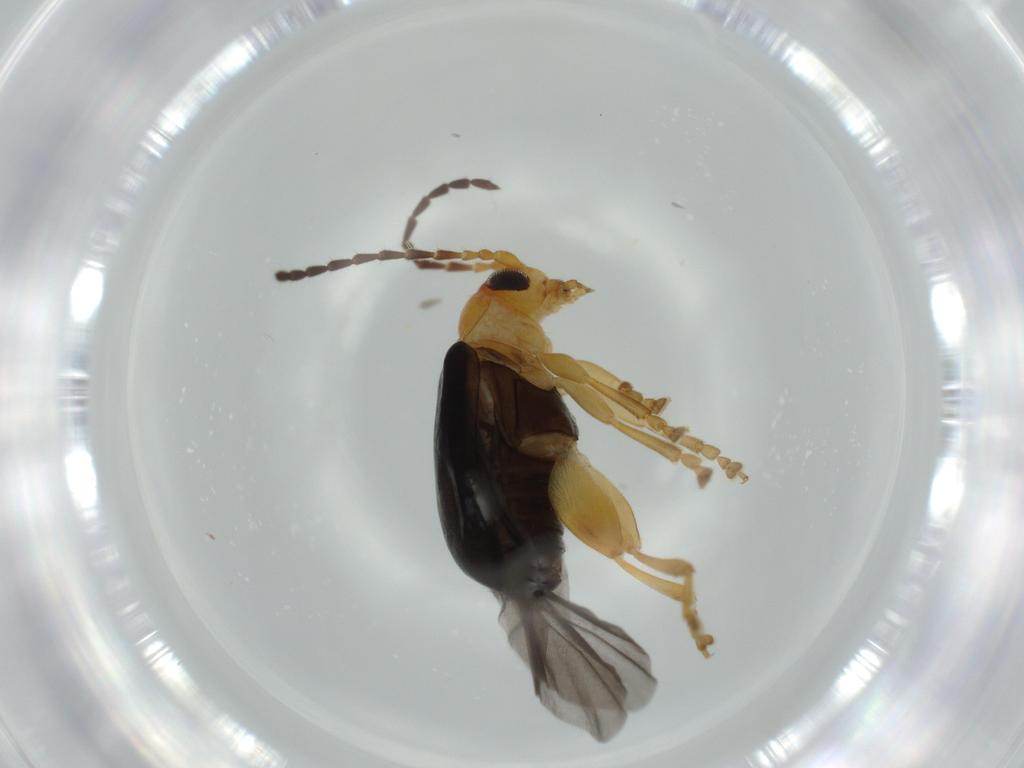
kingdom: Animalia
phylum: Arthropoda
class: Insecta
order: Coleoptera
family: Chrysomelidae
